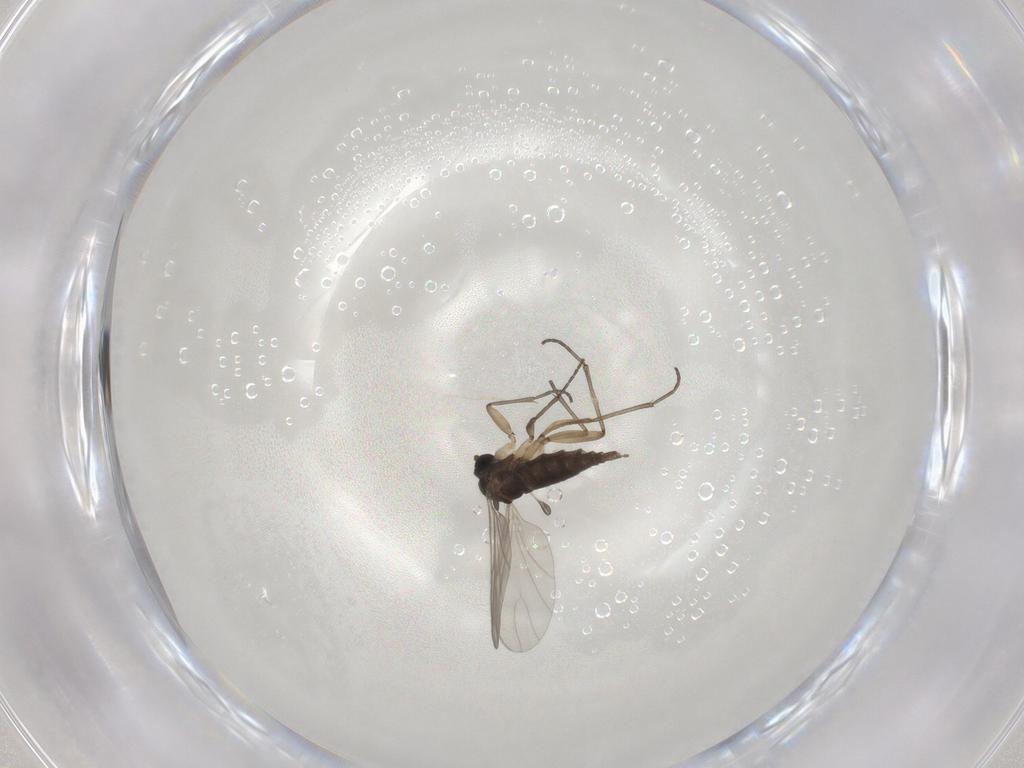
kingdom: Animalia
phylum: Arthropoda
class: Insecta
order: Diptera
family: Sciaridae
